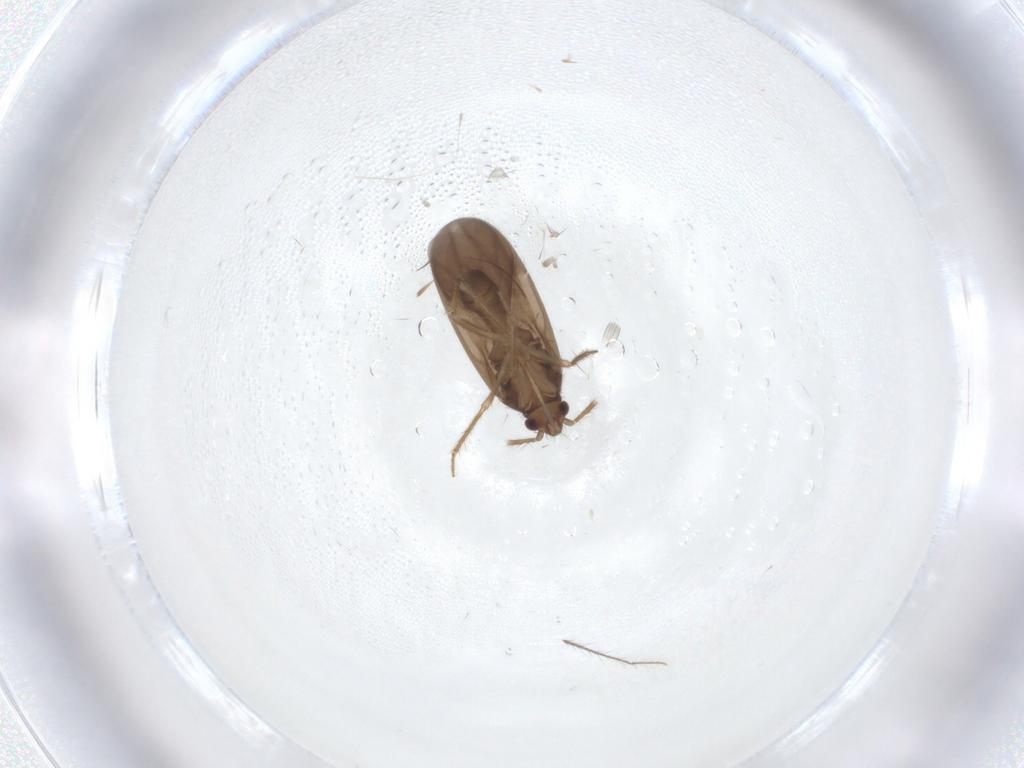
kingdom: Animalia
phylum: Arthropoda
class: Insecta
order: Hemiptera
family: Ceratocombidae
